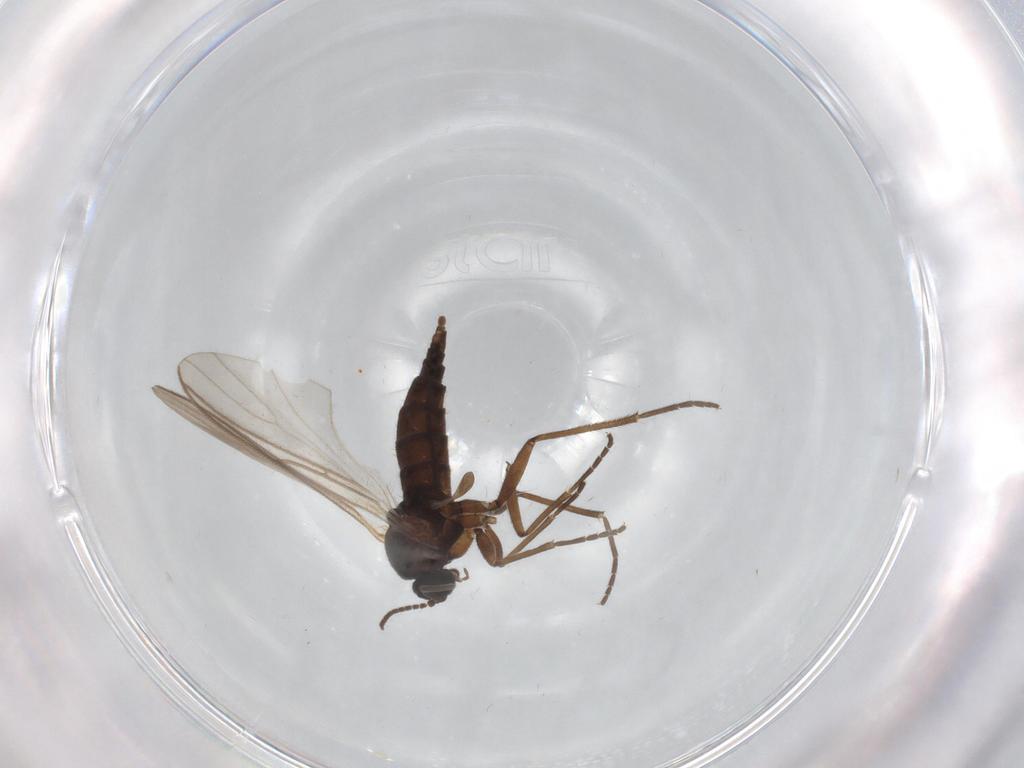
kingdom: Animalia
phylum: Arthropoda
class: Insecta
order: Diptera
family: Sciaridae
